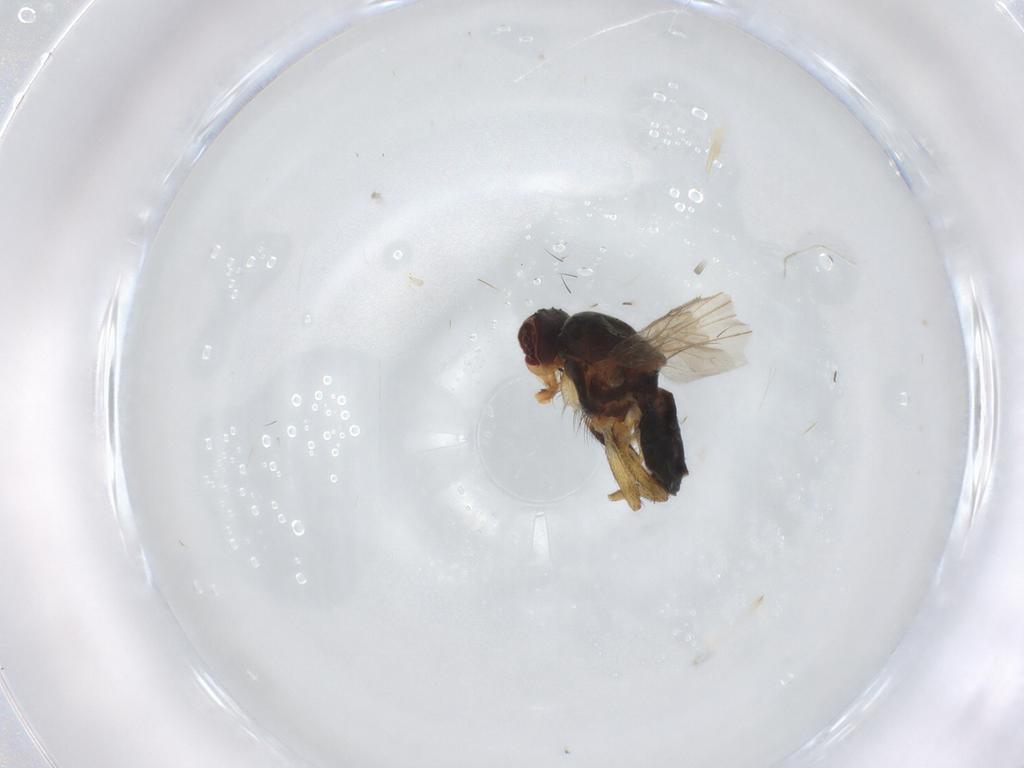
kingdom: Animalia
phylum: Arthropoda
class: Insecta
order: Diptera
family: Heleomyzidae
